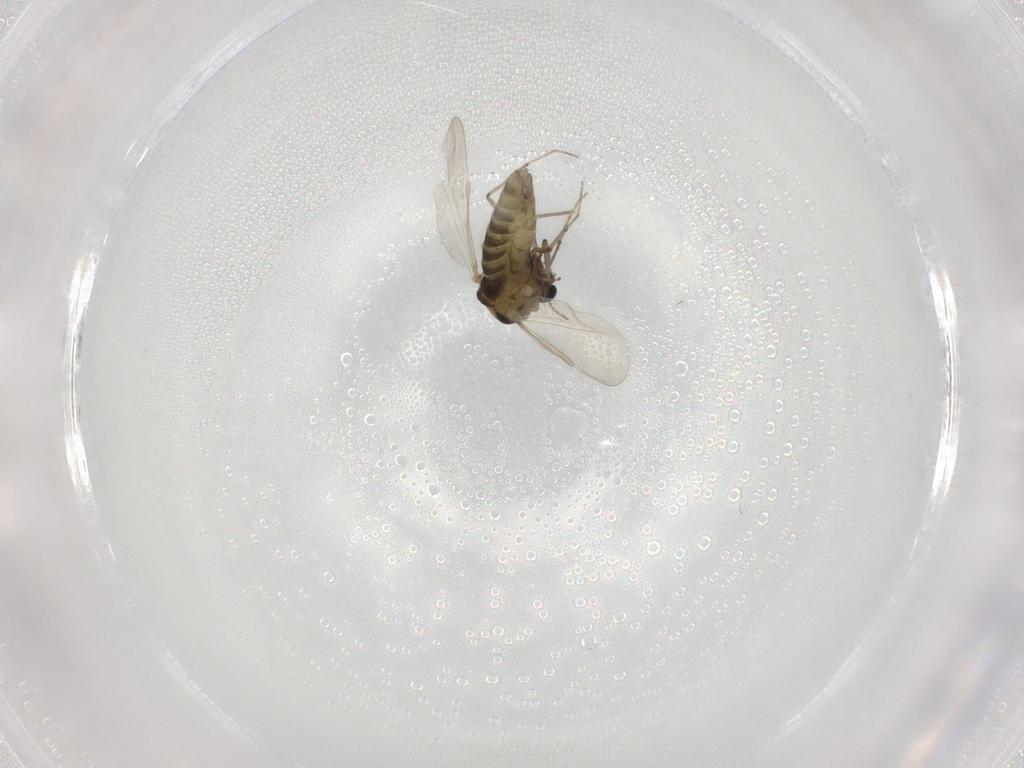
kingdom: Animalia
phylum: Arthropoda
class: Insecta
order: Diptera
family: Chironomidae
